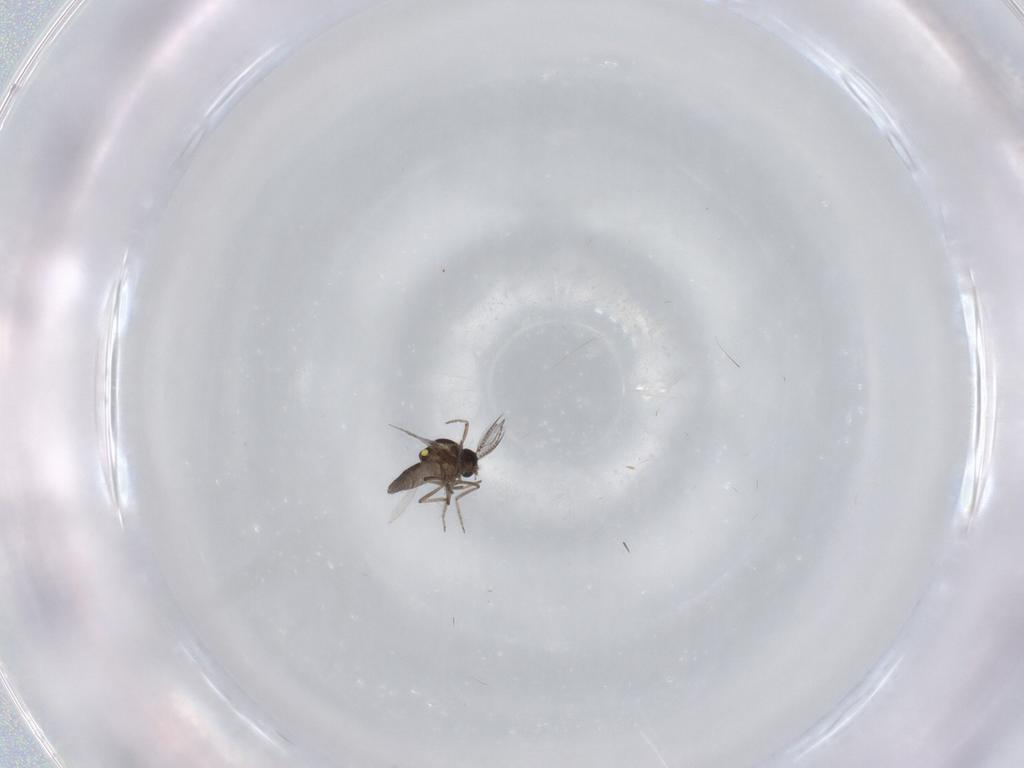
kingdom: Animalia
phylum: Arthropoda
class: Insecta
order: Diptera
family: Ceratopogonidae
